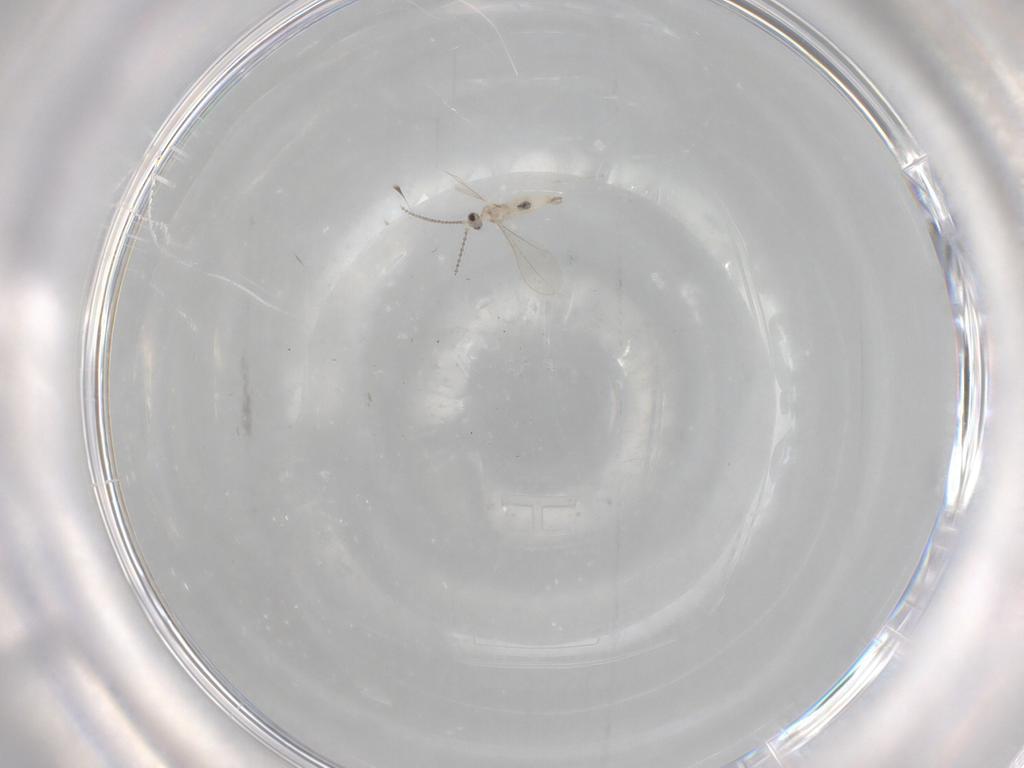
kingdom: Animalia
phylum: Arthropoda
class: Insecta
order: Diptera
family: Chironomidae
